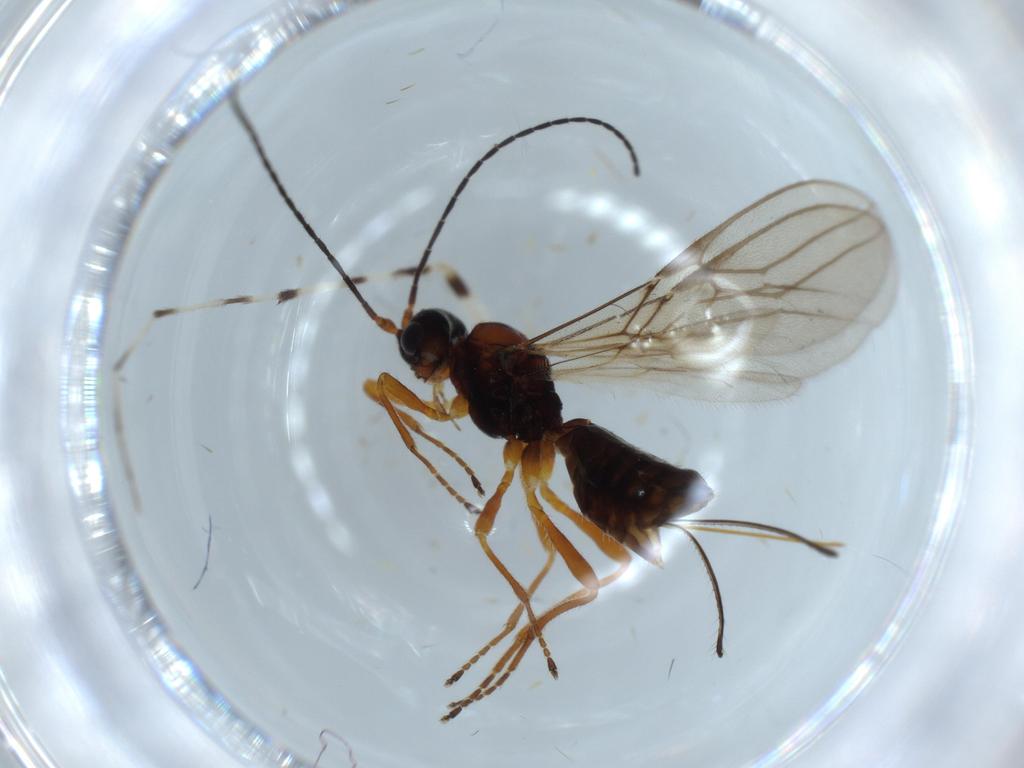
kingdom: Animalia
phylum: Arthropoda
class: Insecta
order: Hymenoptera
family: Braconidae
